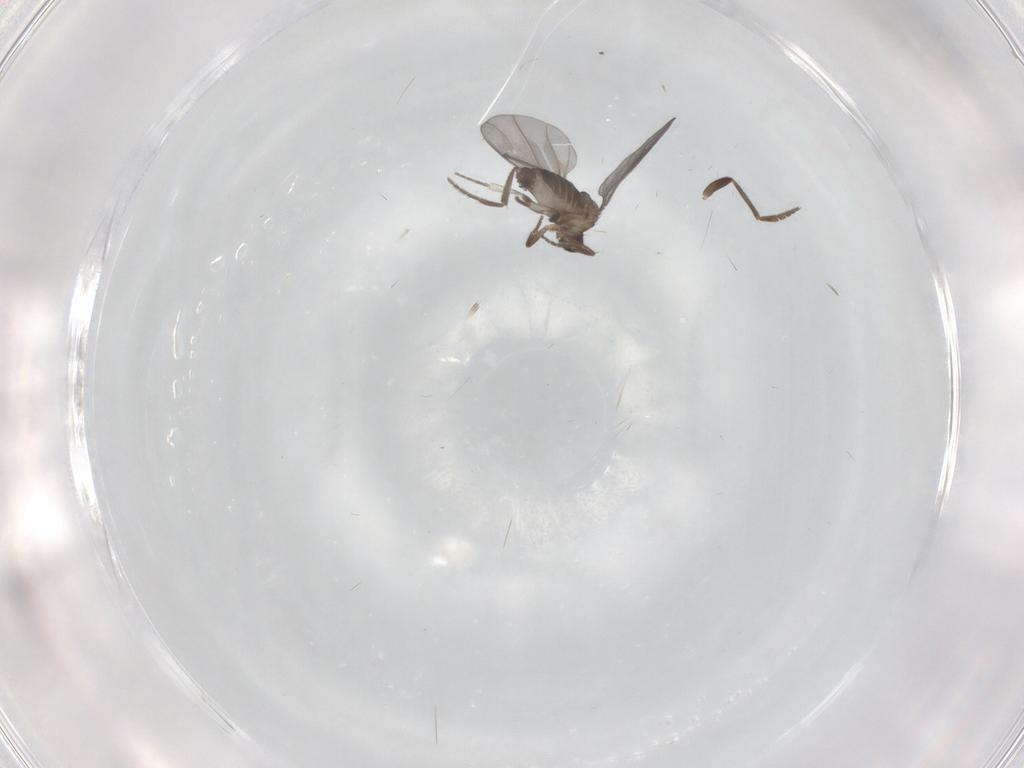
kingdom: Animalia
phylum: Arthropoda
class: Insecta
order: Diptera
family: Phoridae
